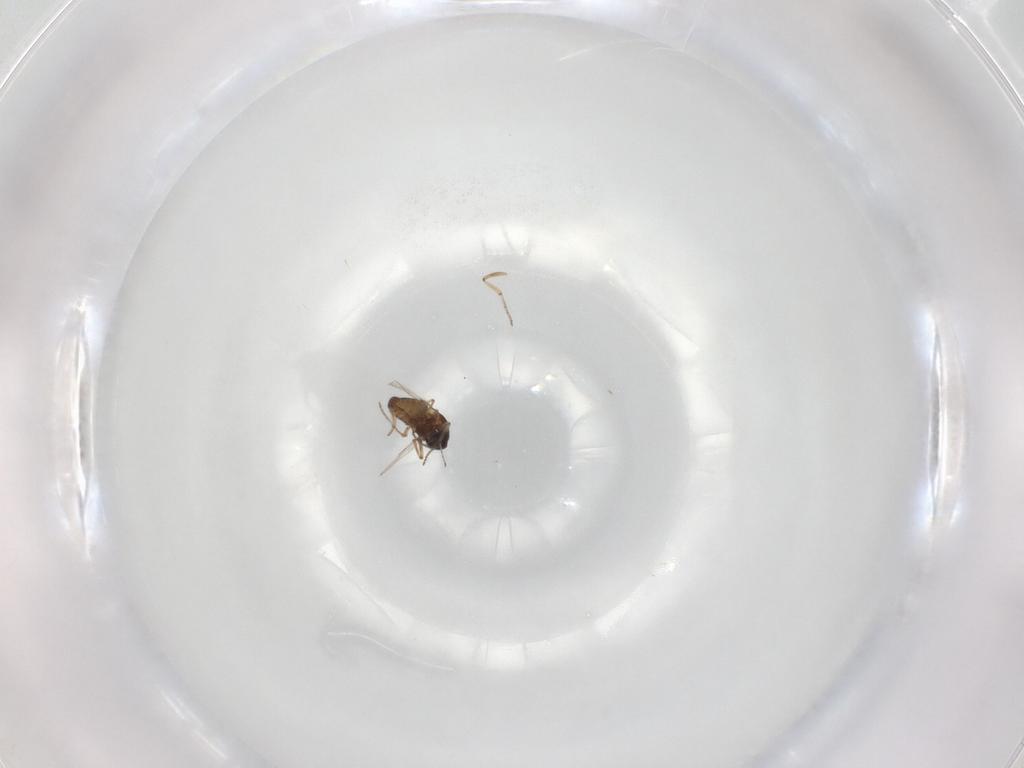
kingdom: Animalia
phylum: Arthropoda
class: Insecta
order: Diptera
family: Ceratopogonidae
